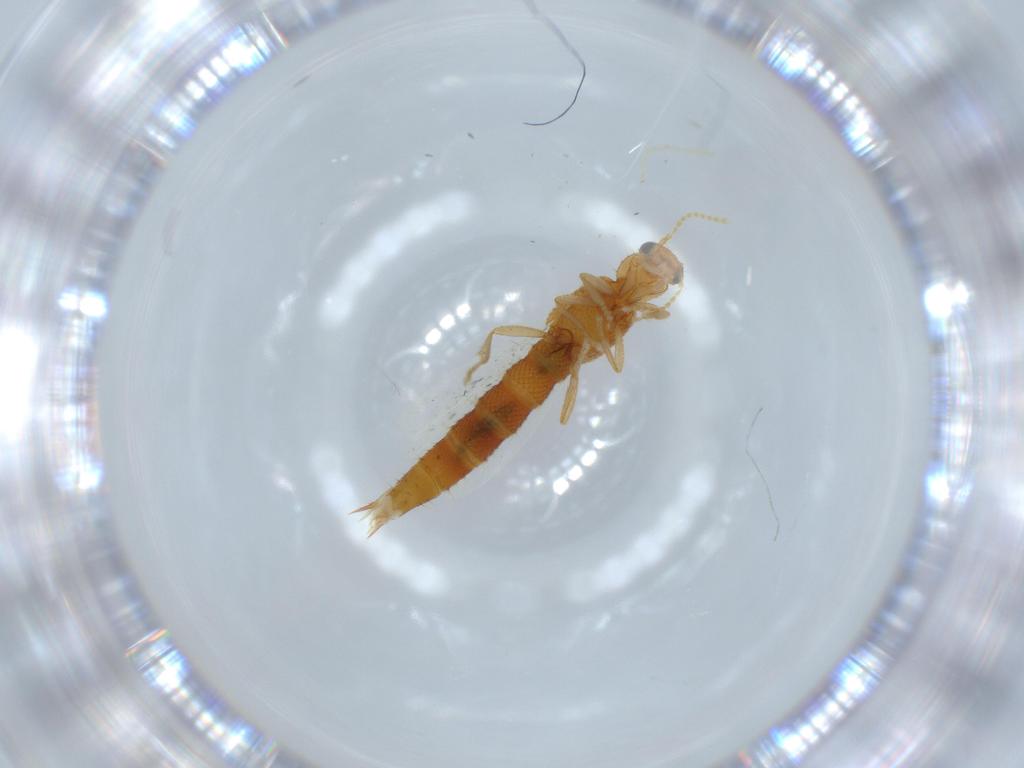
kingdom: Animalia
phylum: Arthropoda
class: Insecta
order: Coleoptera
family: Staphylinidae
